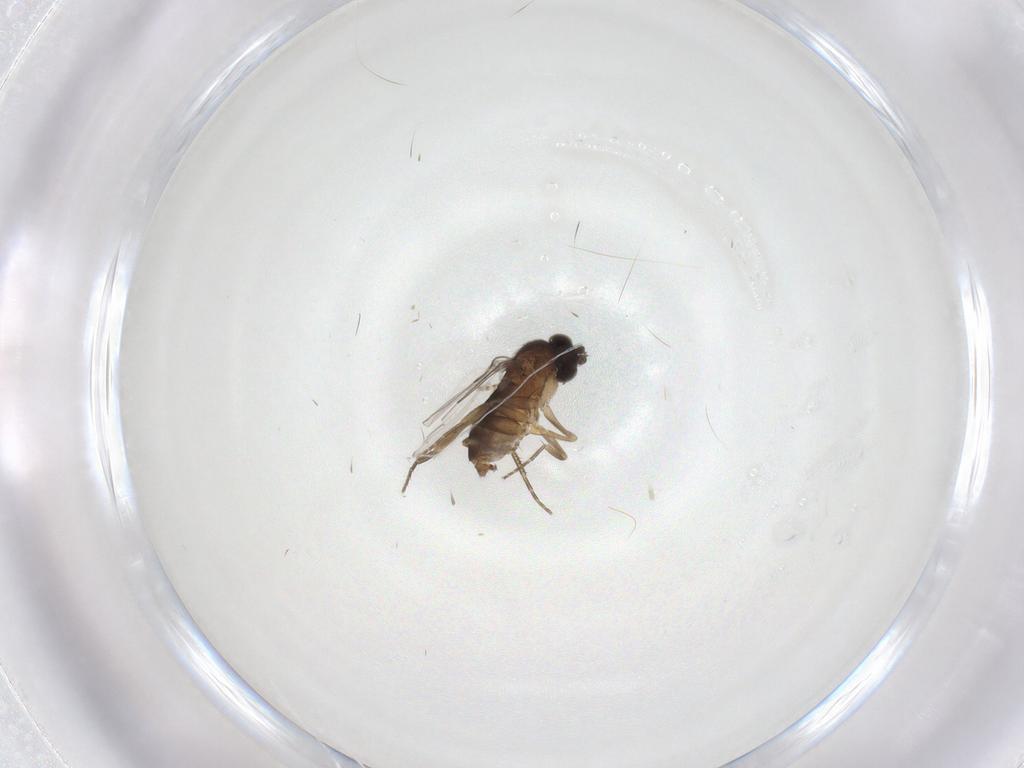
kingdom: Animalia
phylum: Arthropoda
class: Insecta
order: Diptera
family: Phoridae
